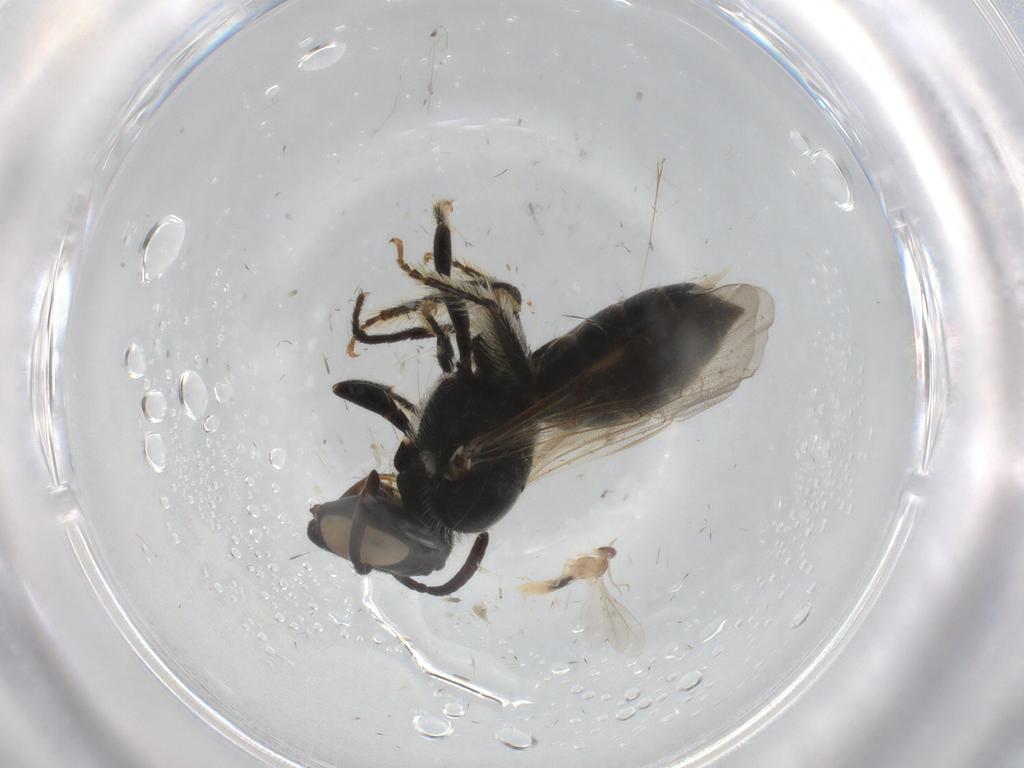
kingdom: Animalia
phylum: Arthropoda
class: Insecta
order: Hymenoptera
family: Apidae
